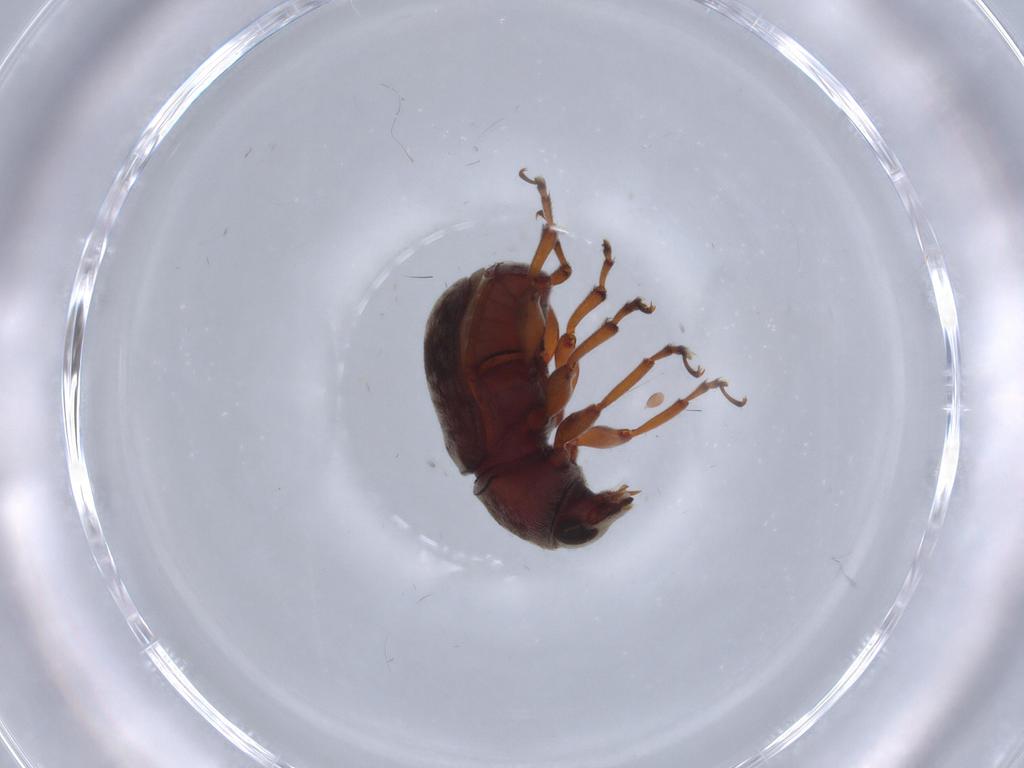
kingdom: Animalia
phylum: Arthropoda
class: Insecta
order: Coleoptera
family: Anthribidae
